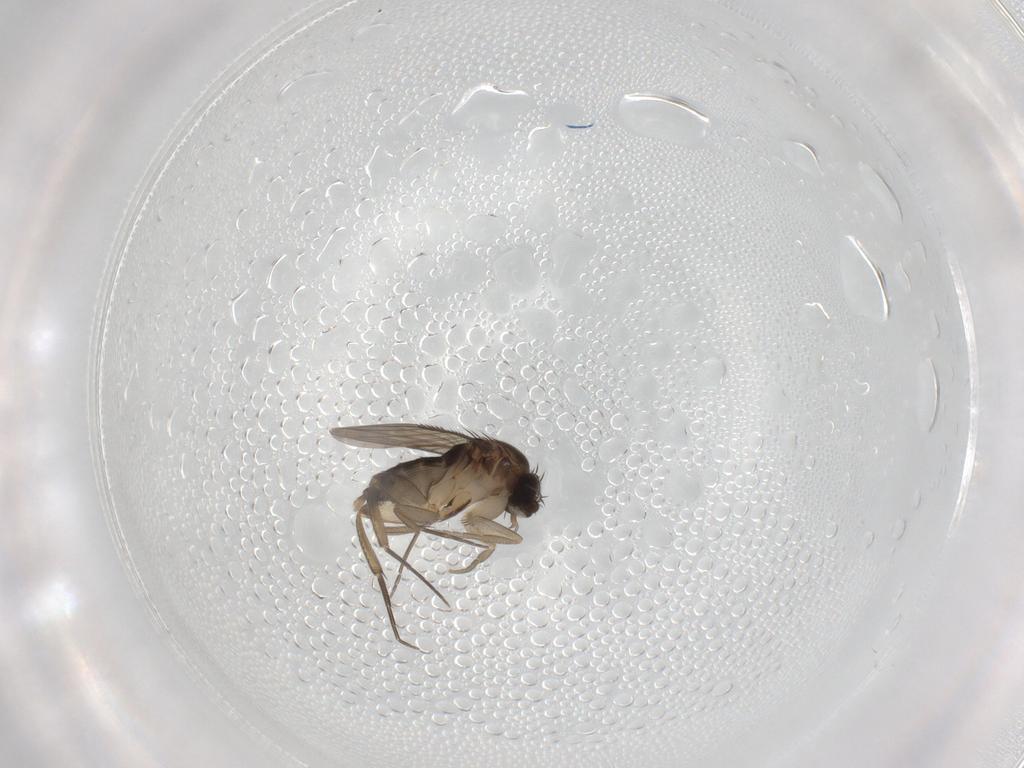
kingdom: Animalia
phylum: Arthropoda
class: Insecta
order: Diptera
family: Phoridae
